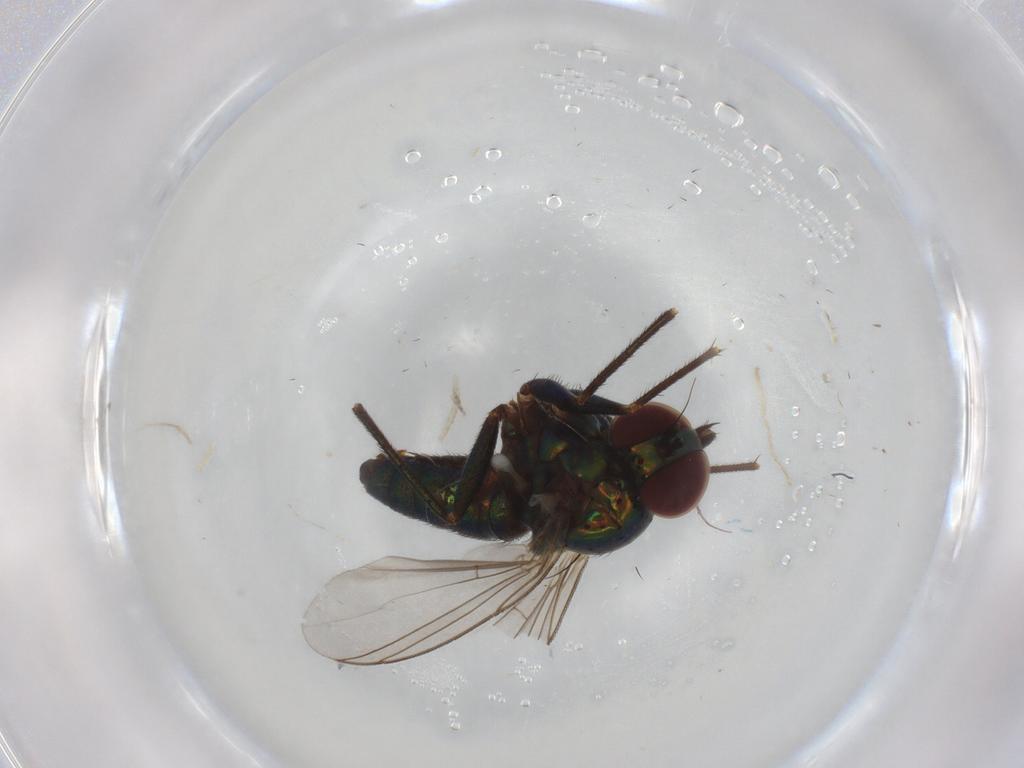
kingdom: Animalia
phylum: Arthropoda
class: Insecta
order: Diptera
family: Dolichopodidae
